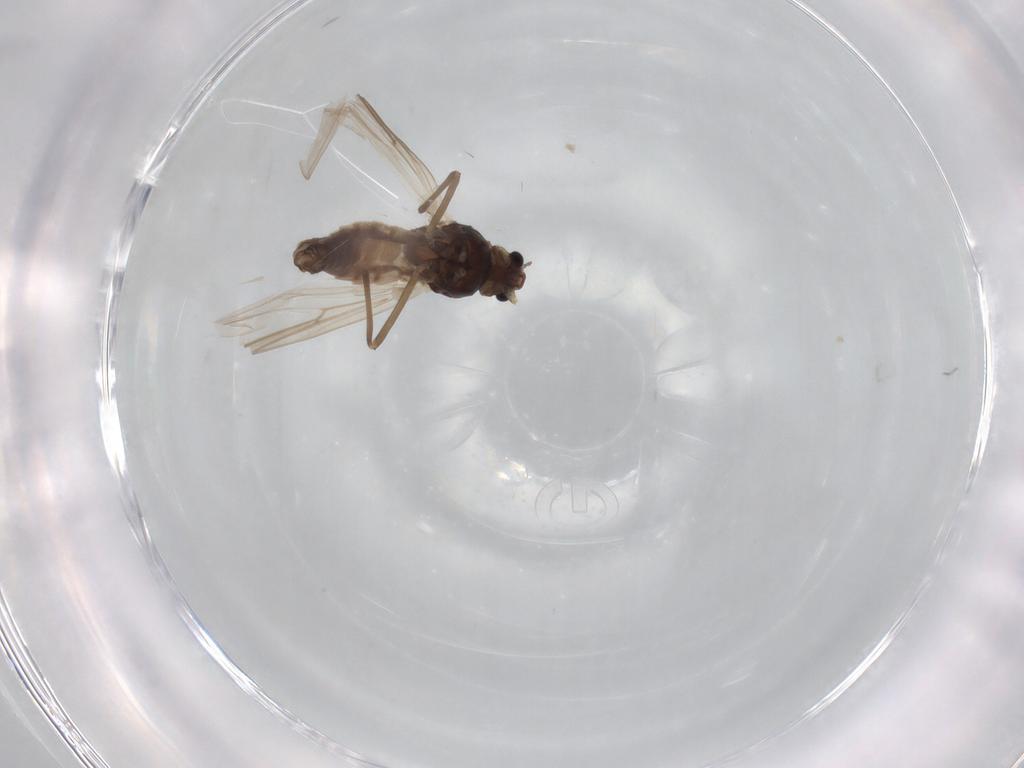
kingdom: Animalia
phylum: Arthropoda
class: Insecta
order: Diptera
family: Chironomidae
